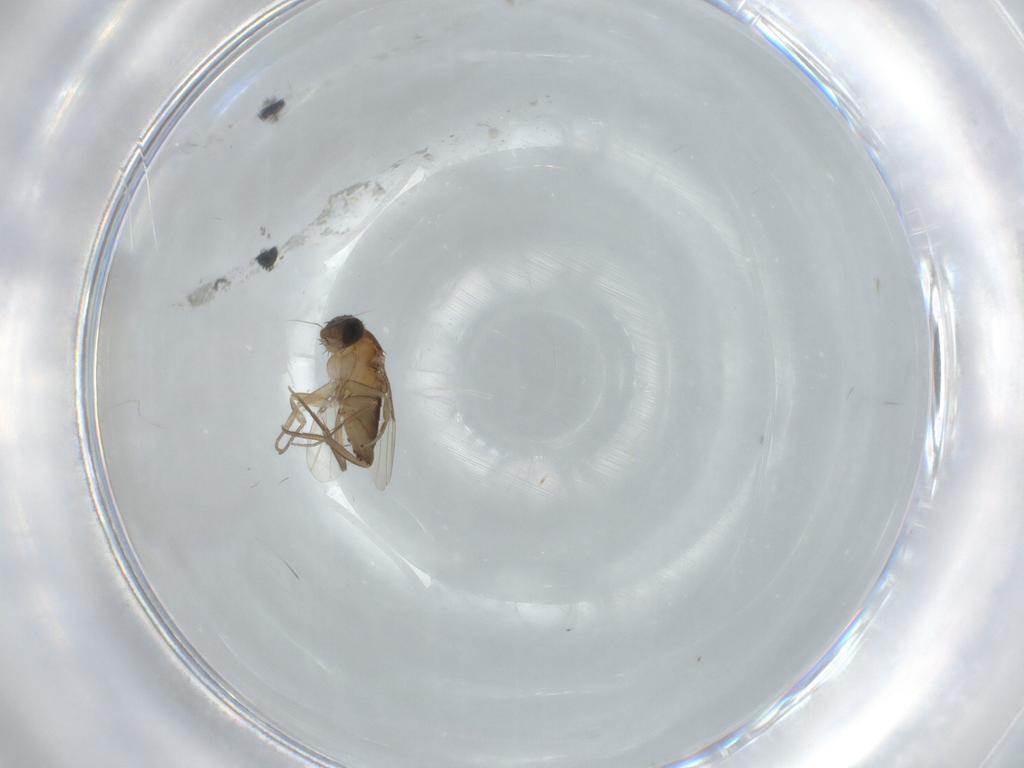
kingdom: Animalia
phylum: Arthropoda
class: Insecta
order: Diptera
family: Phoridae
